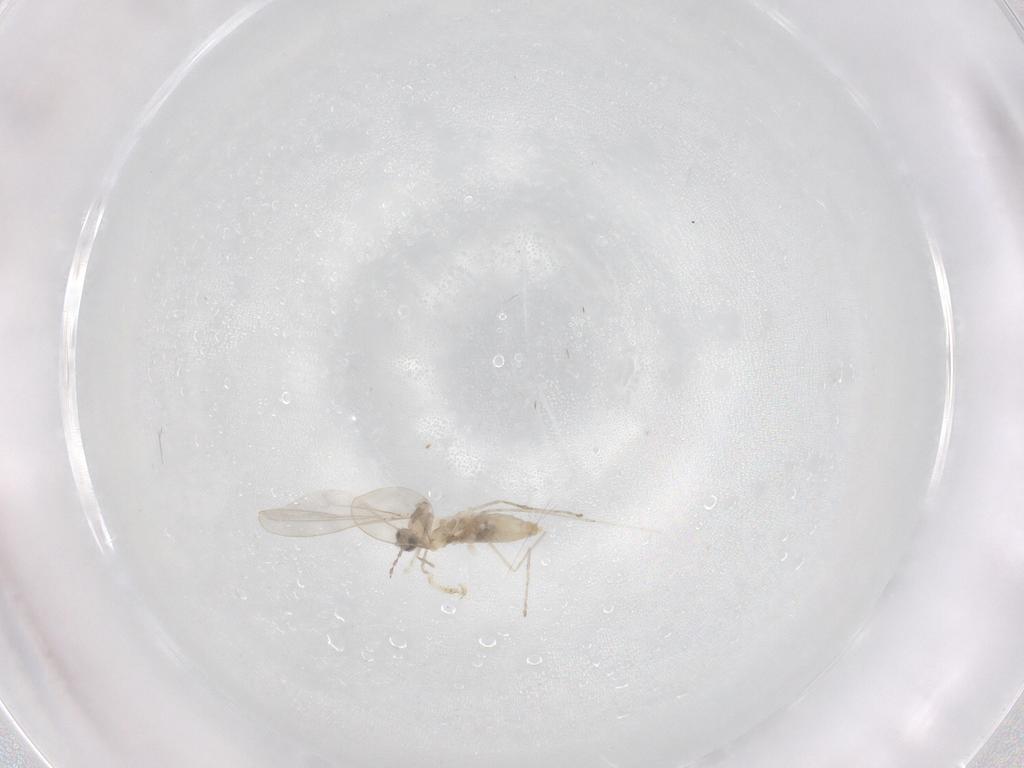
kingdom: Animalia
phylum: Arthropoda
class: Insecta
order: Diptera
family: Cecidomyiidae
